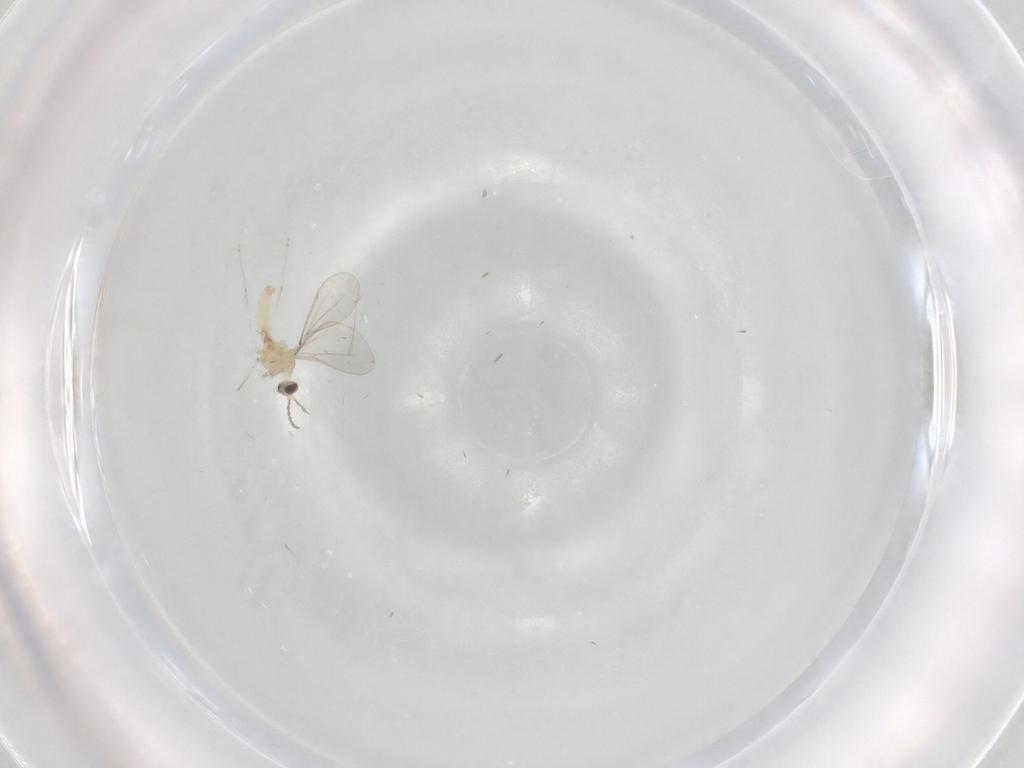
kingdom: Animalia
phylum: Arthropoda
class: Insecta
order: Diptera
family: Cecidomyiidae
